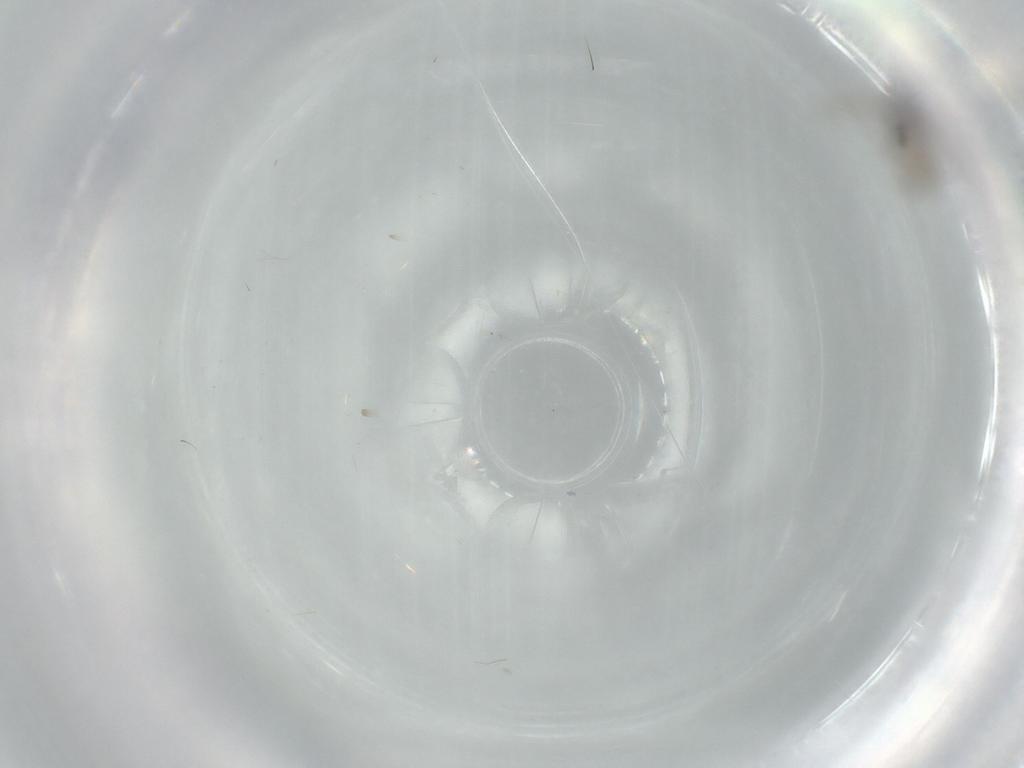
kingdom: Animalia
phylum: Arthropoda
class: Insecta
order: Diptera
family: Cecidomyiidae
